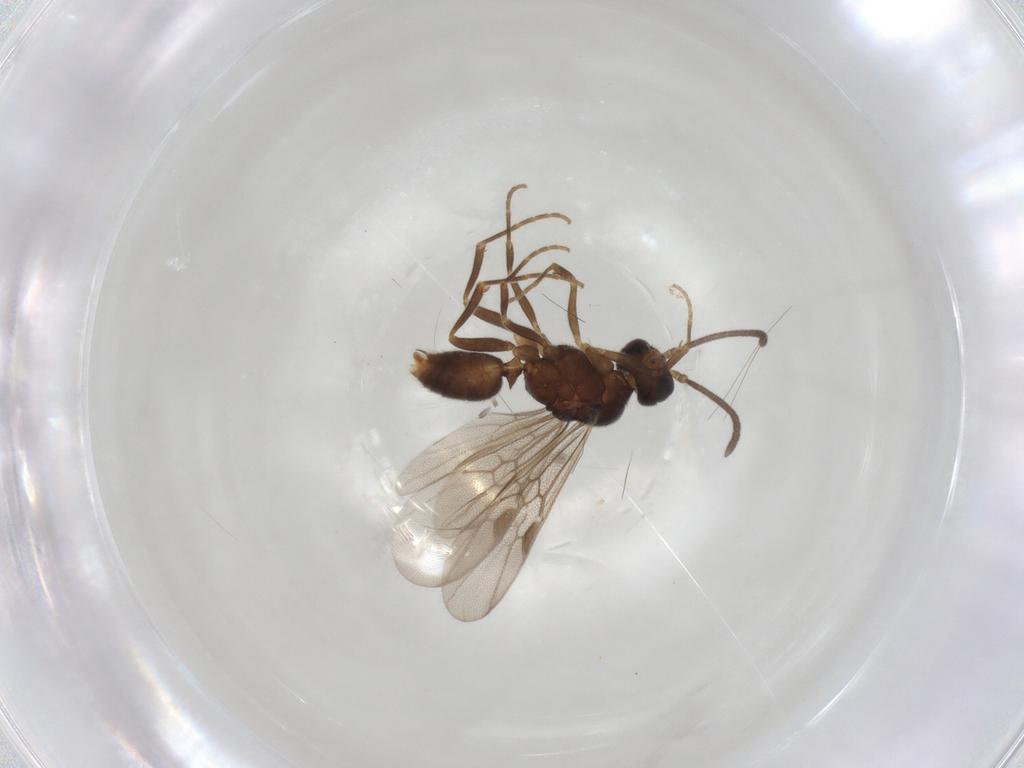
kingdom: Animalia
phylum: Arthropoda
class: Insecta
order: Hymenoptera
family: Formicidae
